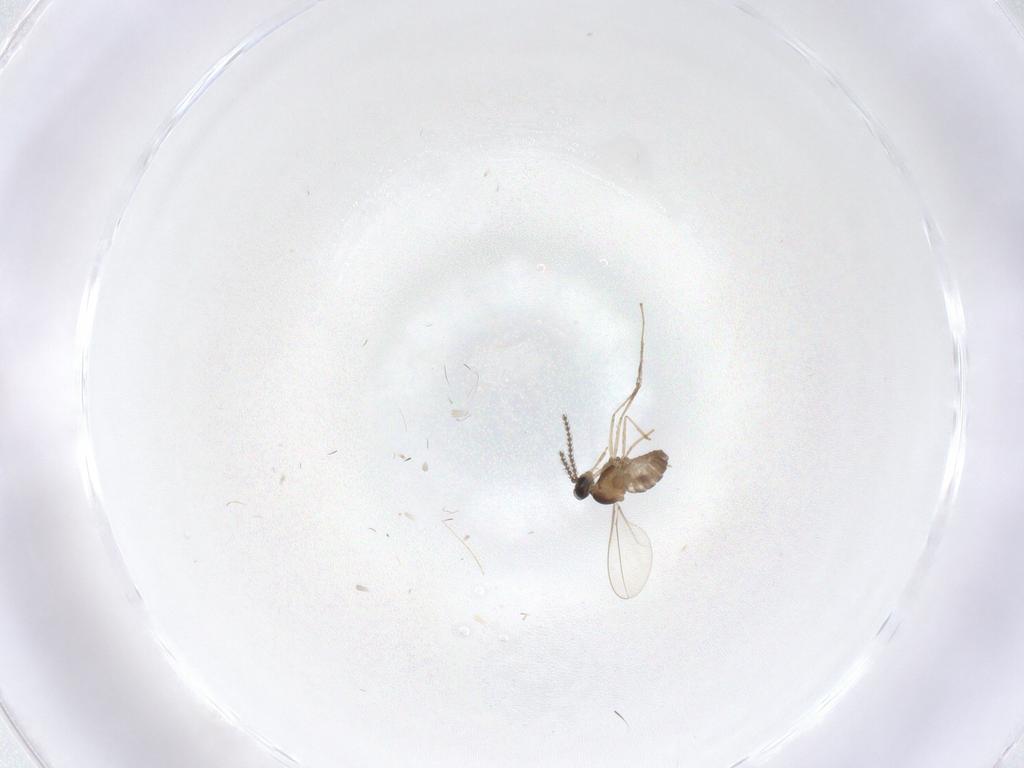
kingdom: Animalia
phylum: Arthropoda
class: Insecta
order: Diptera
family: Cecidomyiidae
